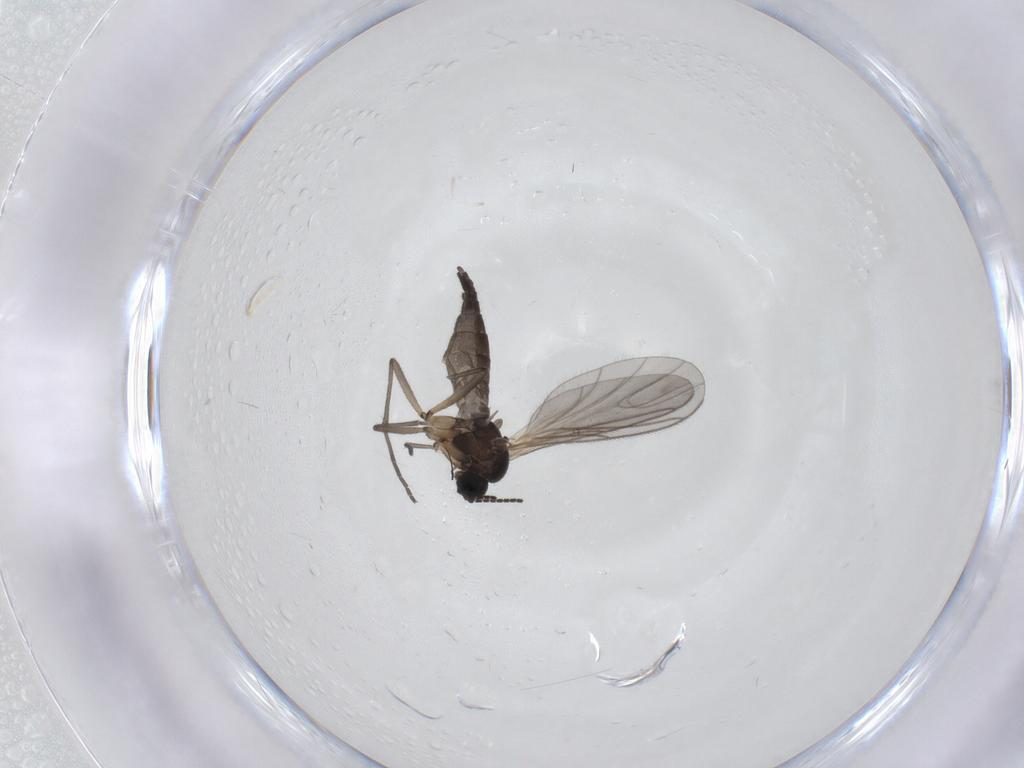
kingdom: Animalia
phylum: Arthropoda
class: Insecta
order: Diptera
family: Sciaridae
